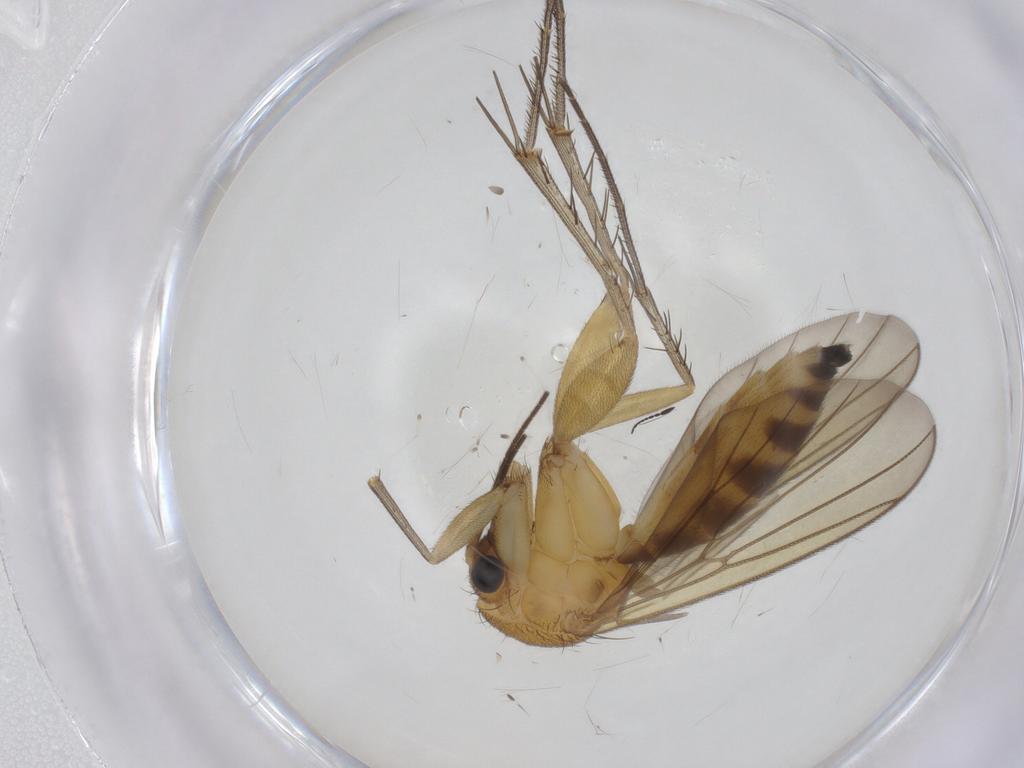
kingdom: Animalia
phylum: Arthropoda
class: Insecta
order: Diptera
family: Mycetophilidae
